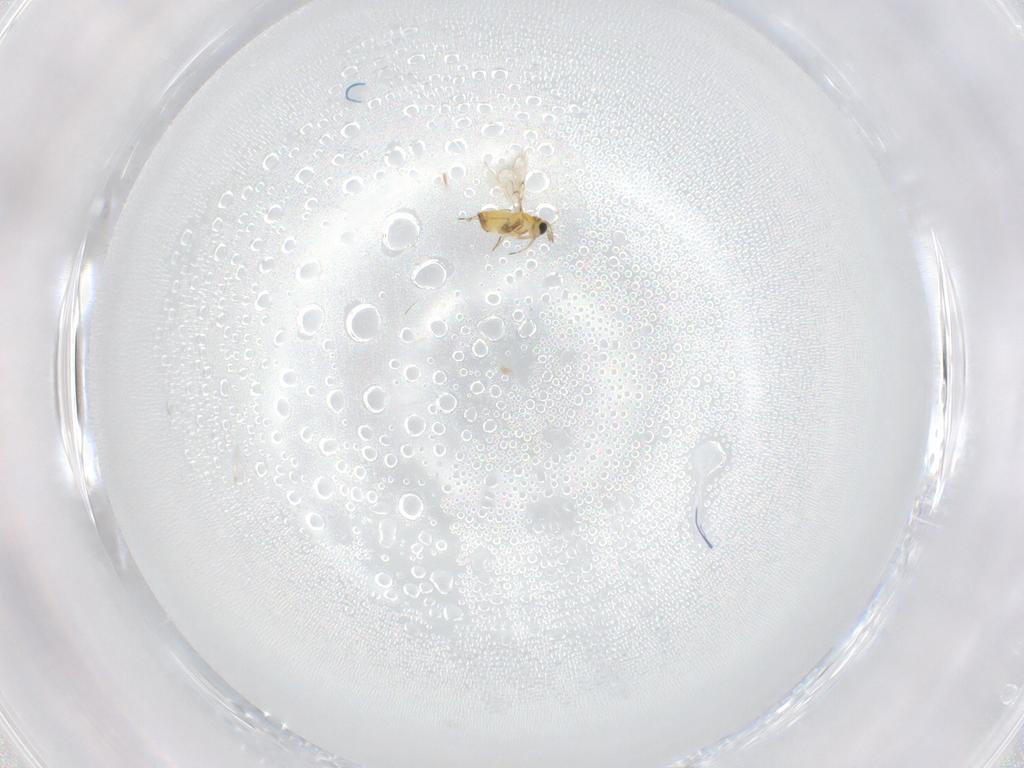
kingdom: Animalia
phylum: Arthropoda
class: Insecta
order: Hymenoptera
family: Trichogrammatidae
